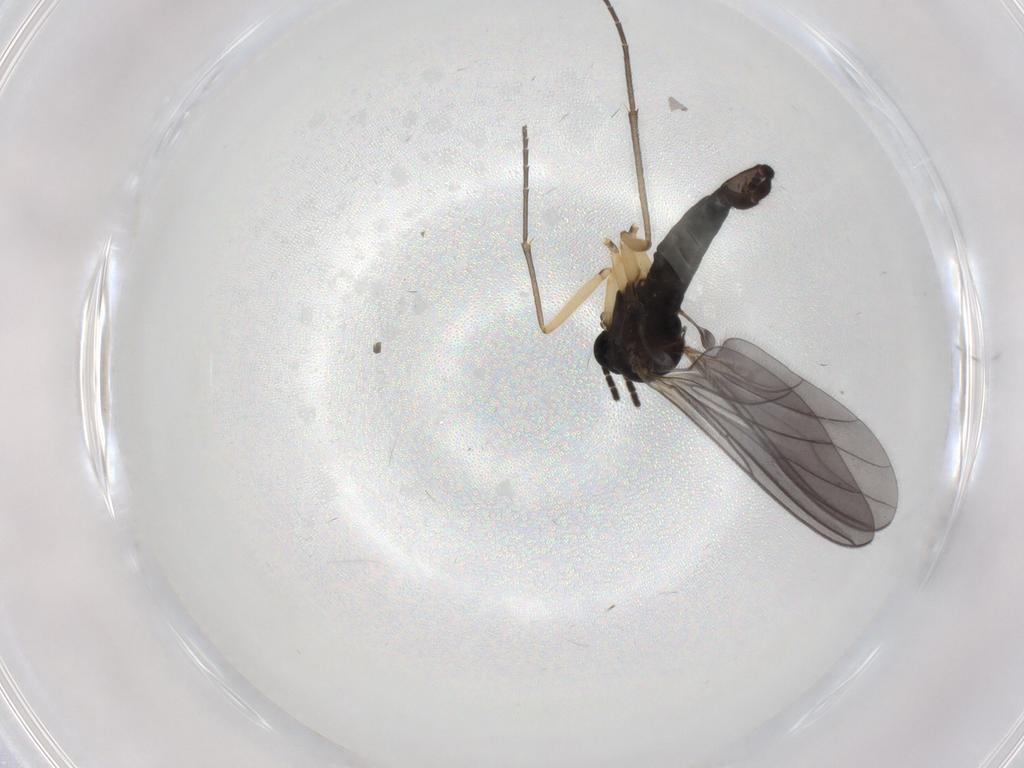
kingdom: Animalia
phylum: Arthropoda
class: Insecta
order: Diptera
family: Sciaridae
